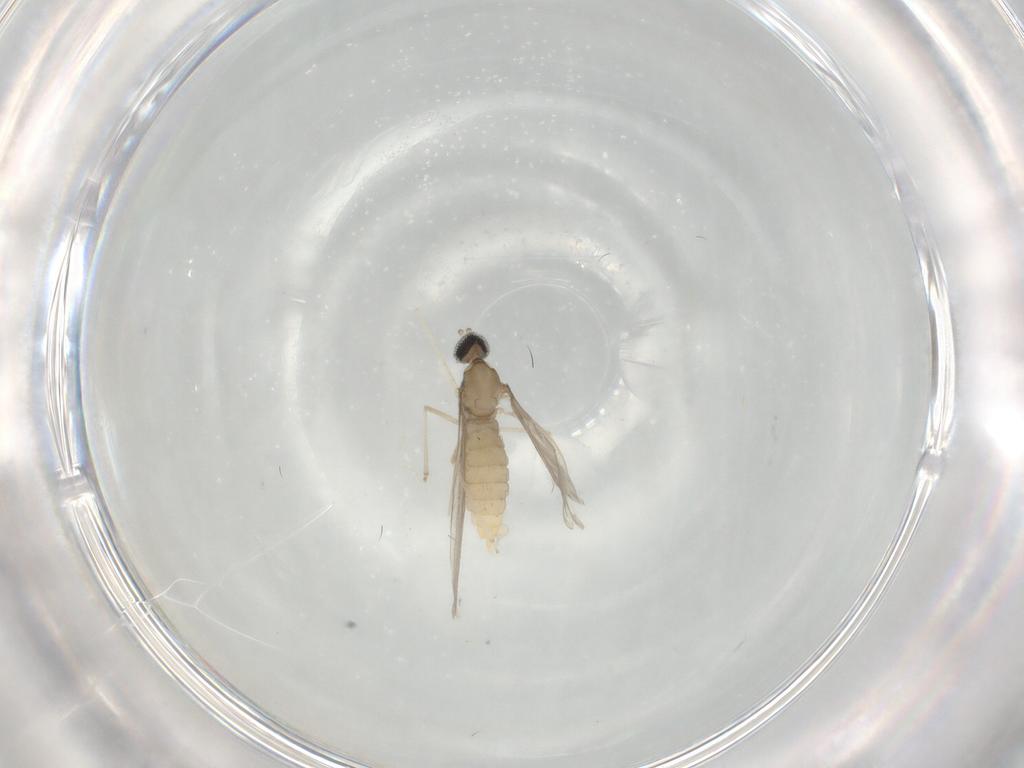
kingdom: Animalia
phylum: Arthropoda
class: Insecta
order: Diptera
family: Cecidomyiidae
